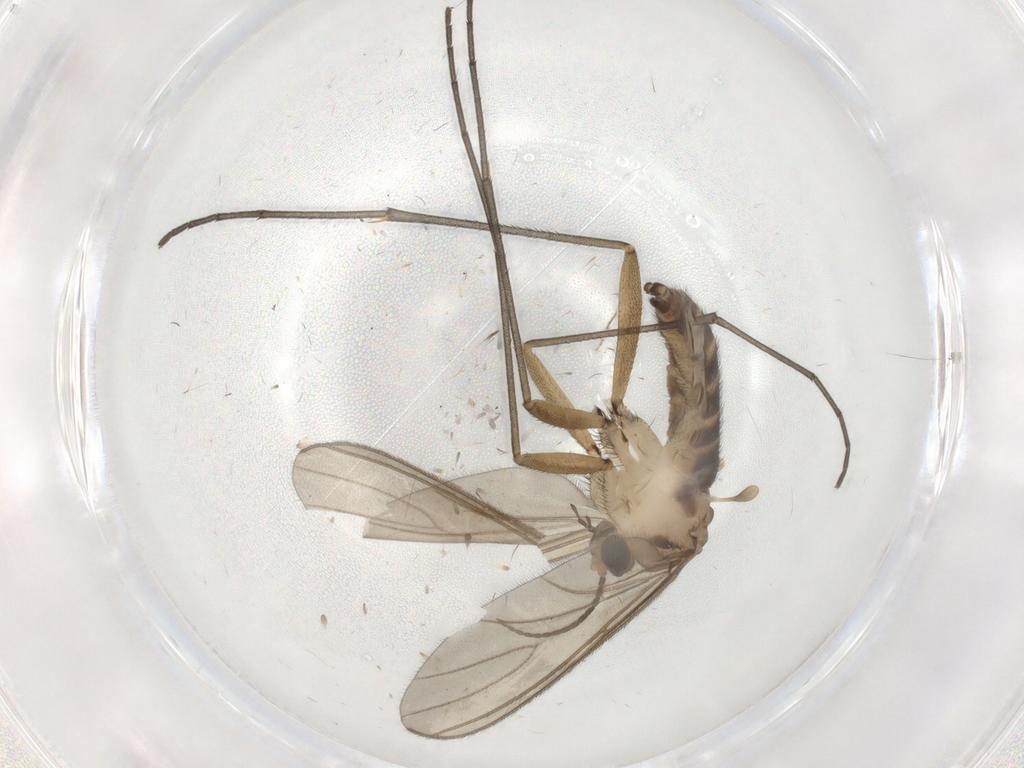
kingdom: Animalia
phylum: Arthropoda
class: Insecta
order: Diptera
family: Sciaridae
